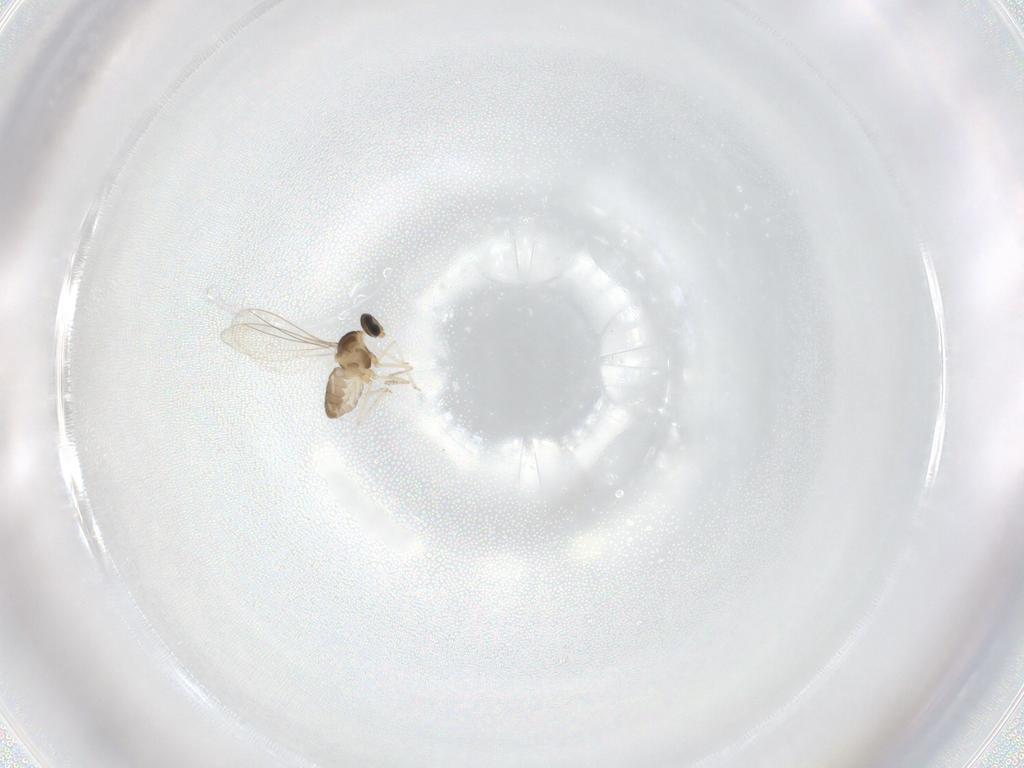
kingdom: Animalia
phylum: Arthropoda
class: Insecta
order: Diptera
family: Cecidomyiidae
